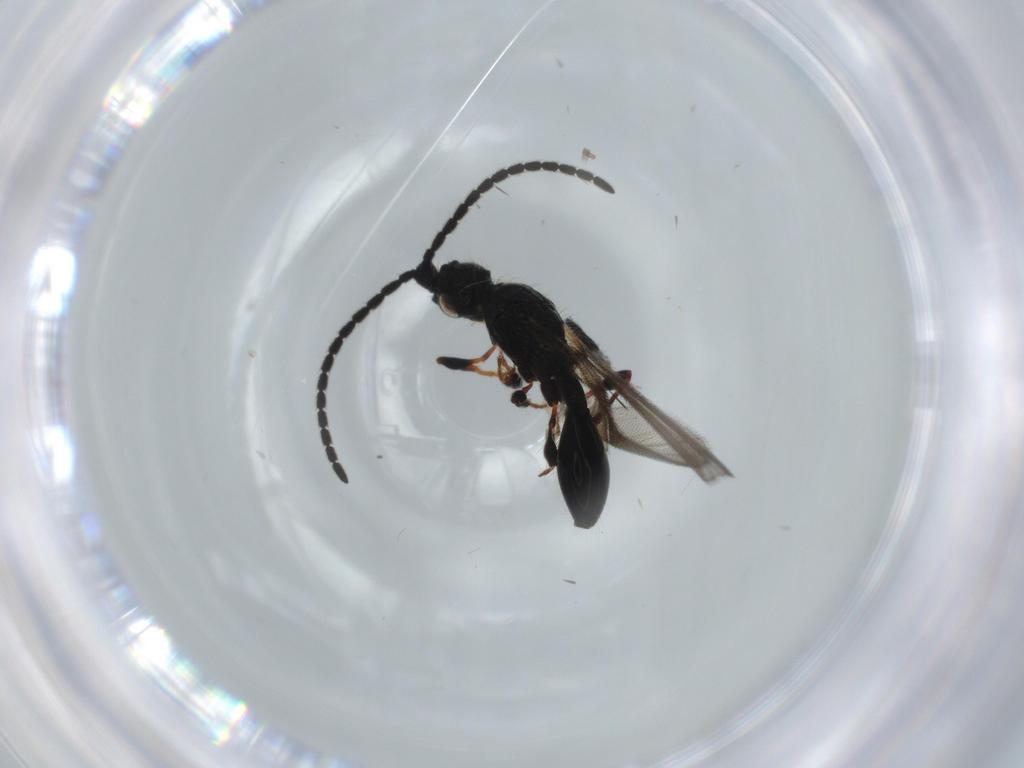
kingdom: Animalia
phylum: Arthropoda
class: Insecta
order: Hymenoptera
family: Diapriidae
